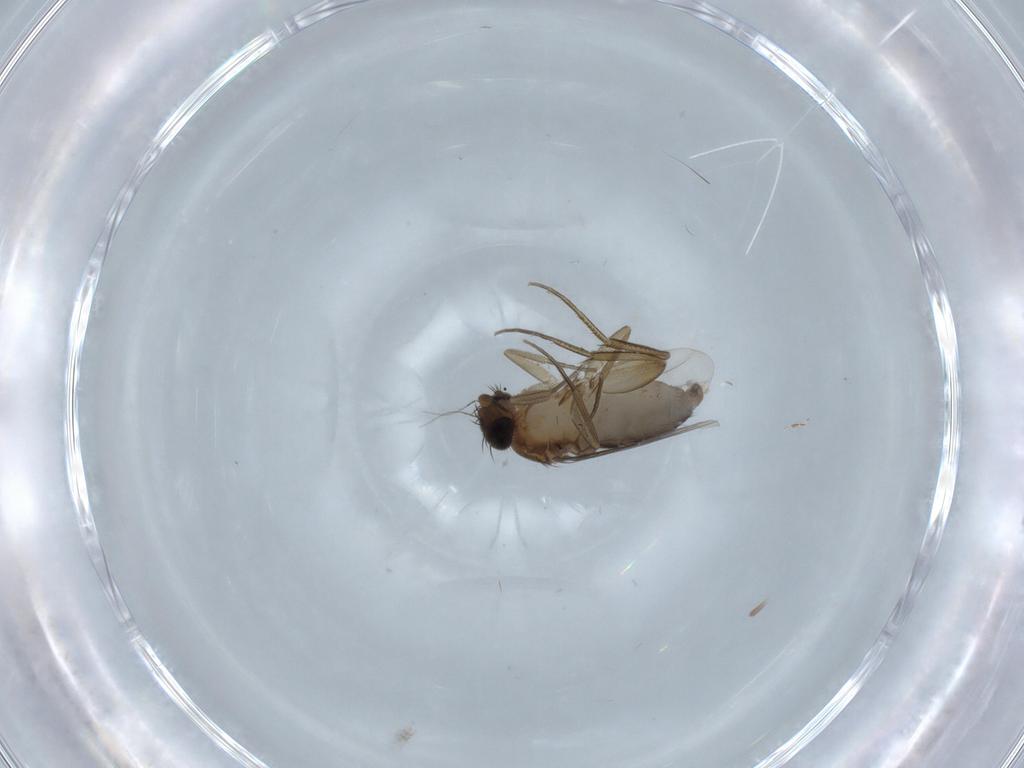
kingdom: Animalia
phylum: Arthropoda
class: Insecta
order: Diptera
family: Phoridae
